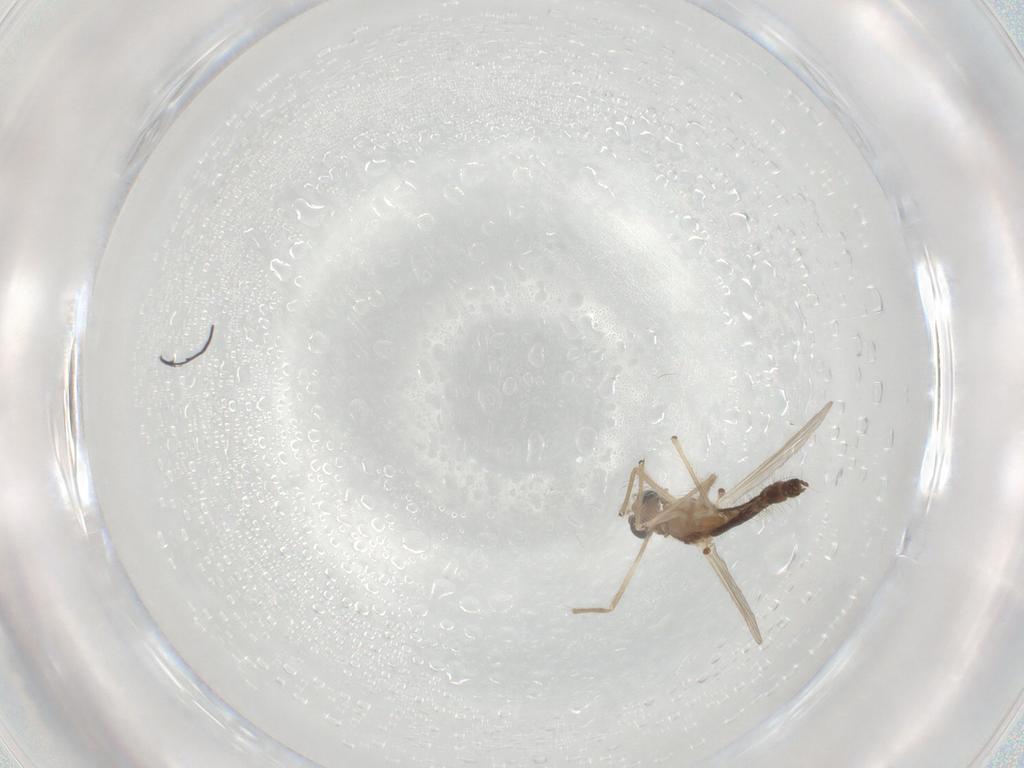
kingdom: Animalia
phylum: Arthropoda
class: Insecta
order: Diptera
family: Chironomidae
